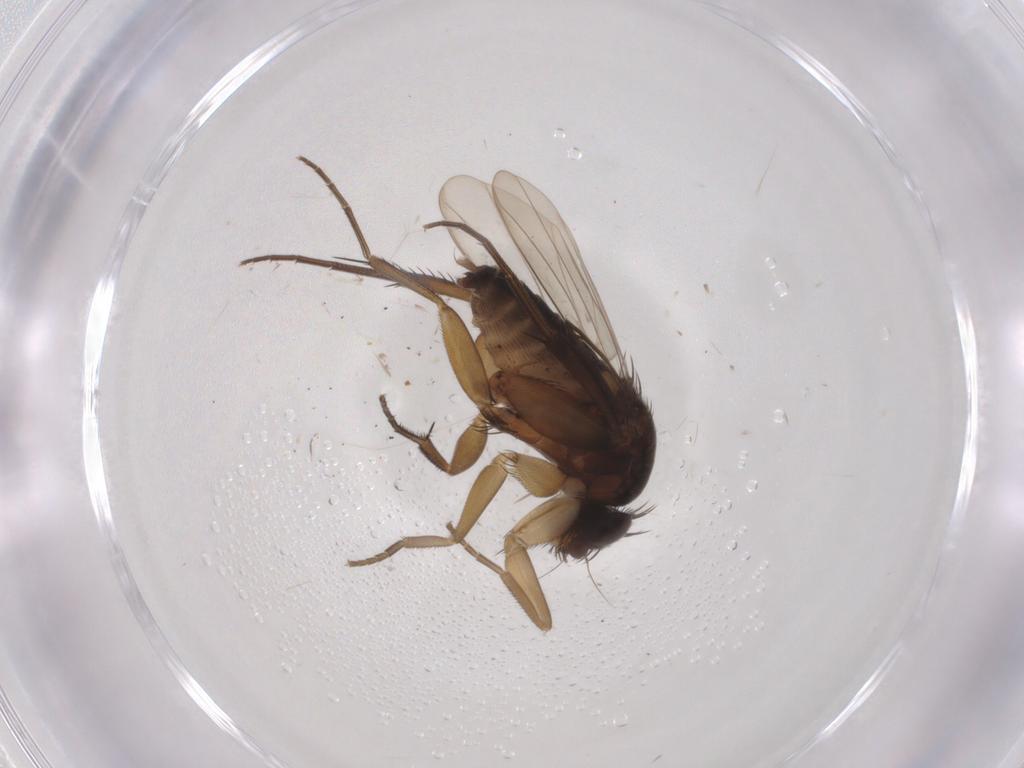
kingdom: Animalia
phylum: Arthropoda
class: Insecta
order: Diptera
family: Phoridae
